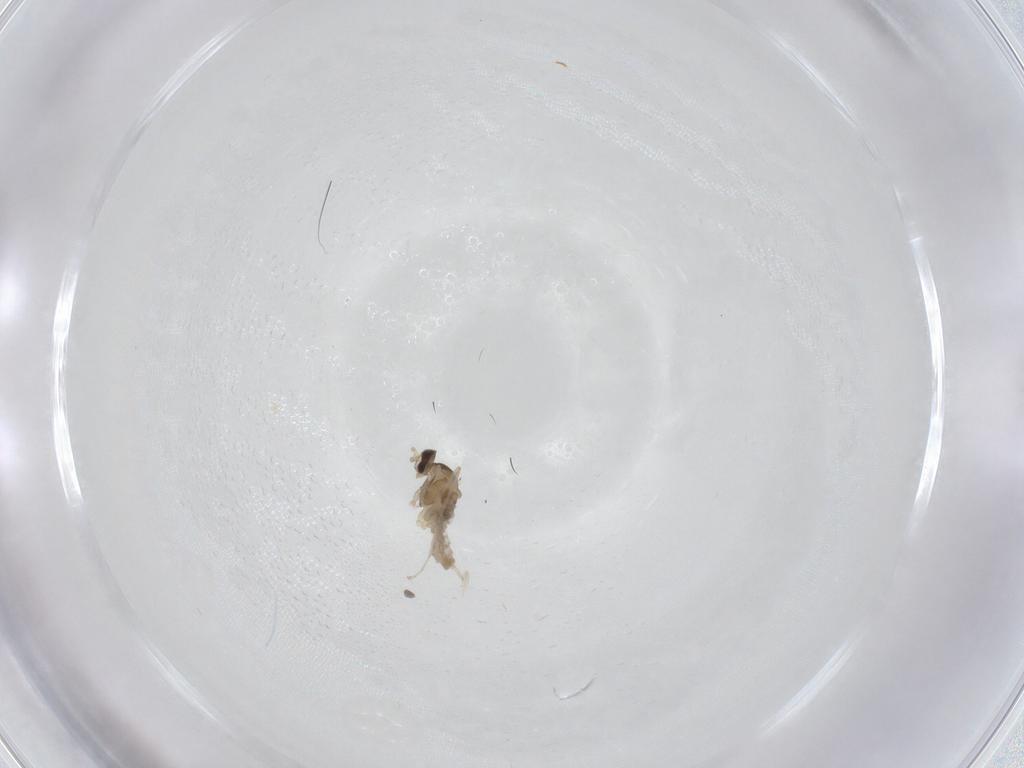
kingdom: Animalia
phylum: Arthropoda
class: Insecta
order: Diptera
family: Cecidomyiidae
